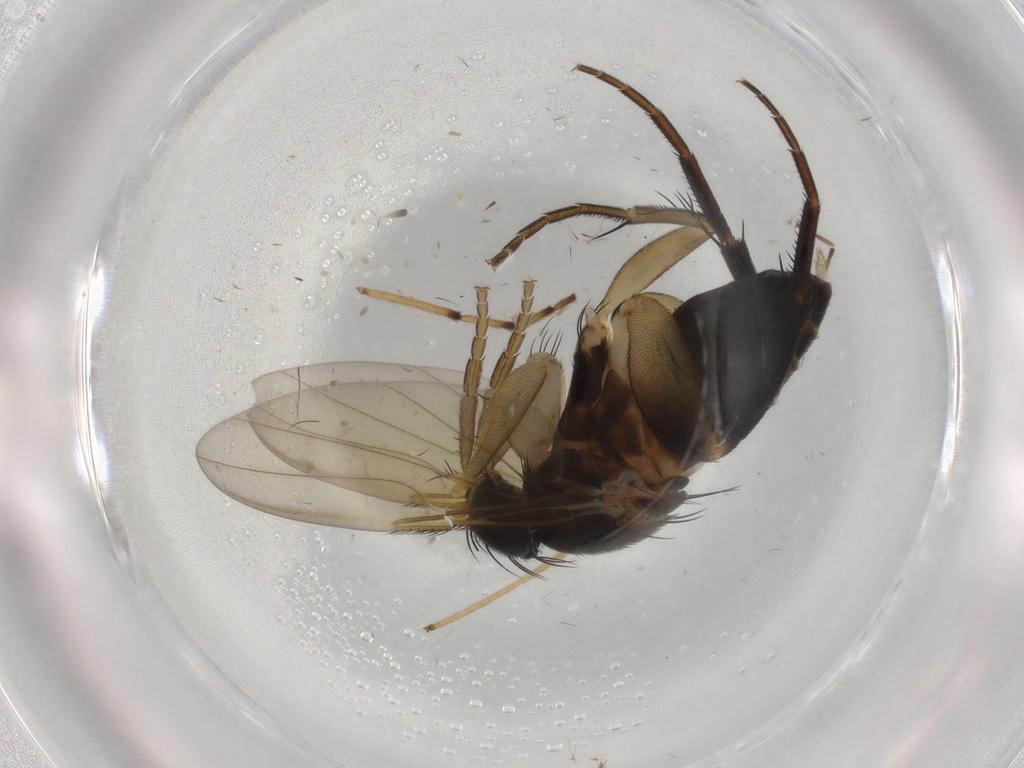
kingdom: Animalia
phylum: Arthropoda
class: Insecta
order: Diptera
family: Phoridae
